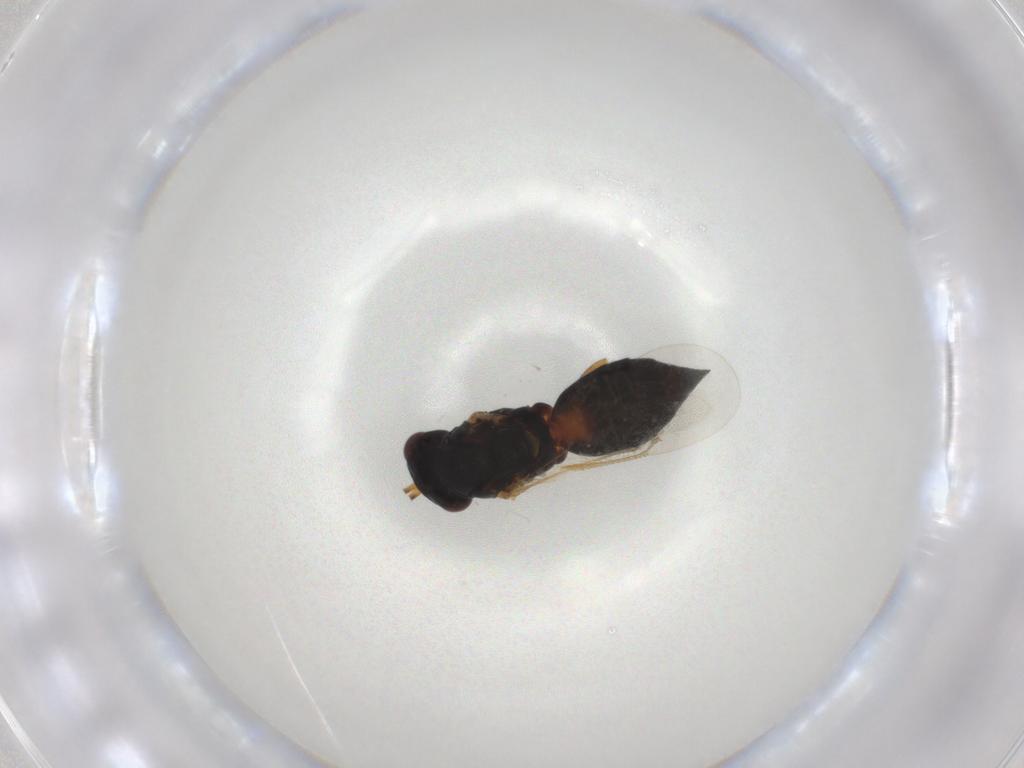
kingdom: Animalia
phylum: Arthropoda
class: Insecta
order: Hymenoptera
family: Eulophidae
